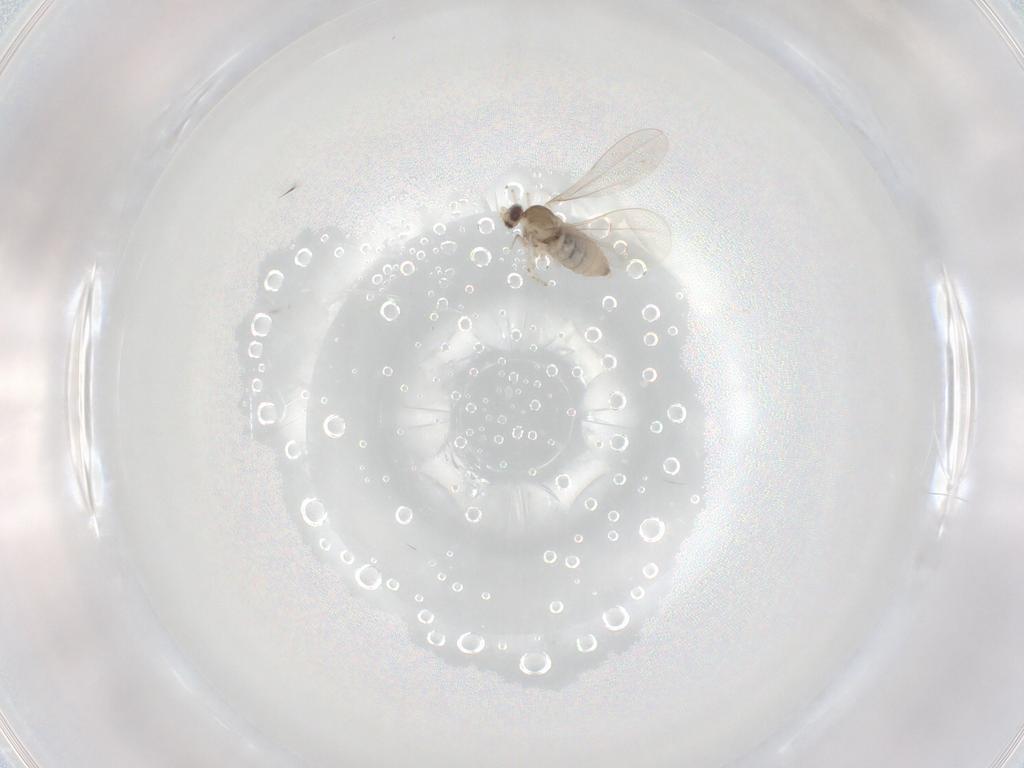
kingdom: Animalia
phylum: Arthropoda
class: Insecta
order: Diptera
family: Cecidomyiidae
